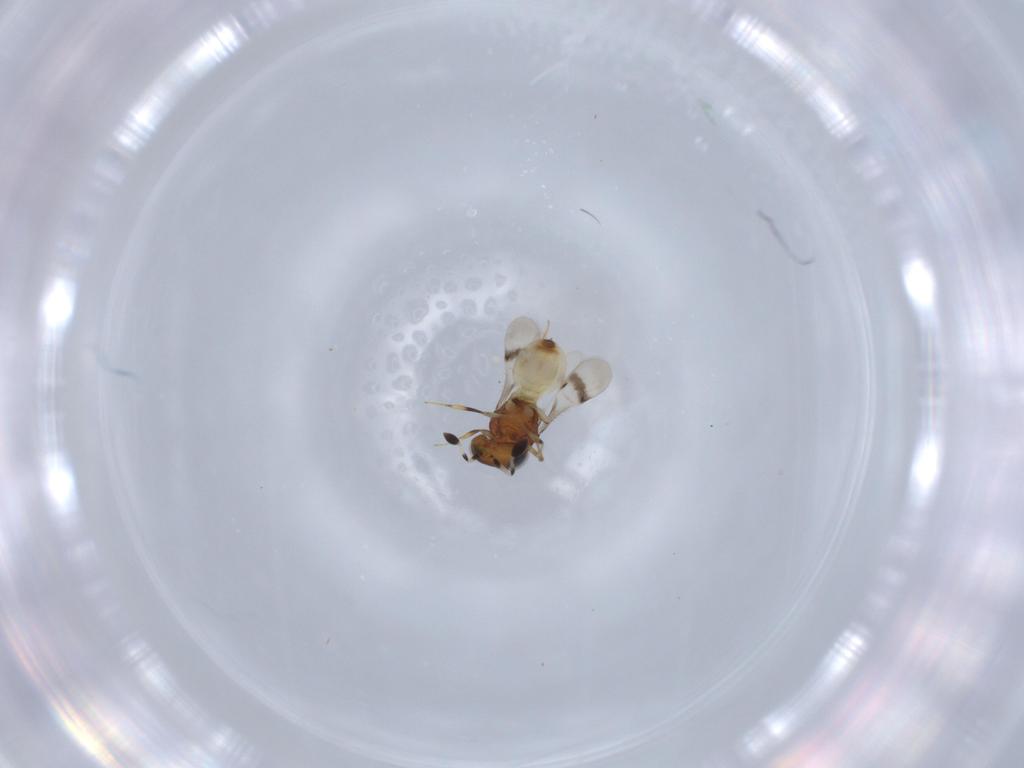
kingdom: Animalia
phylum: Arthropoda
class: Arachnida
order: Araneae
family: Pholcidae
